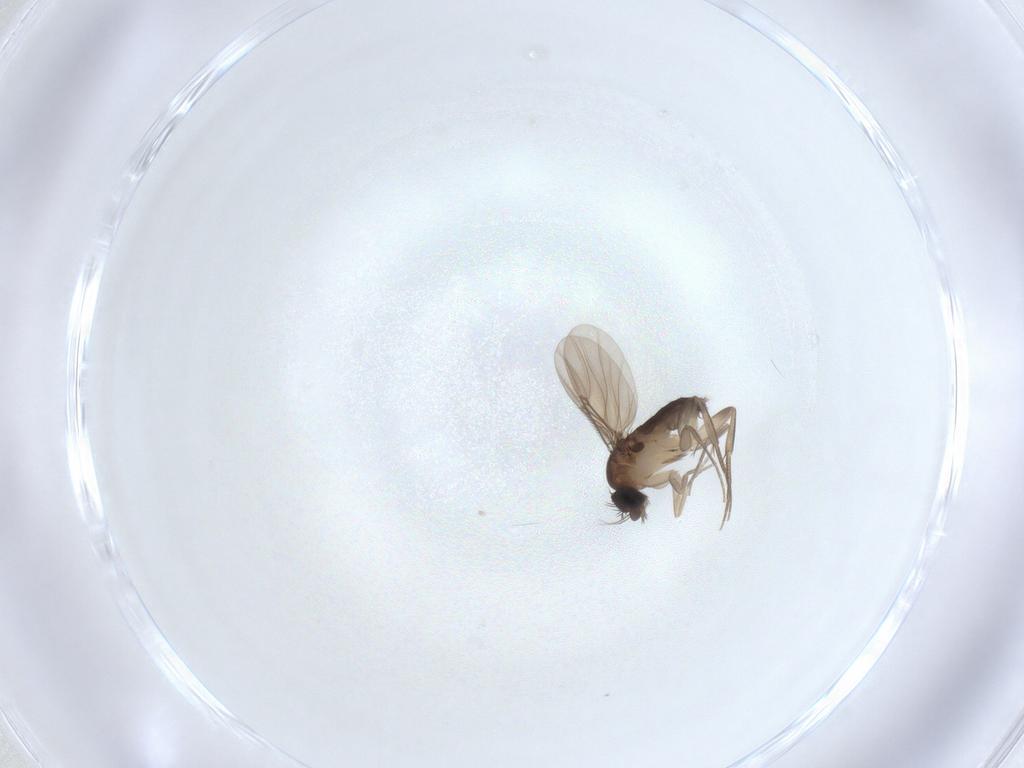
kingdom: Animalia
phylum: Arthropoda
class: Insecta
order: Diptera
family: Phoridae
